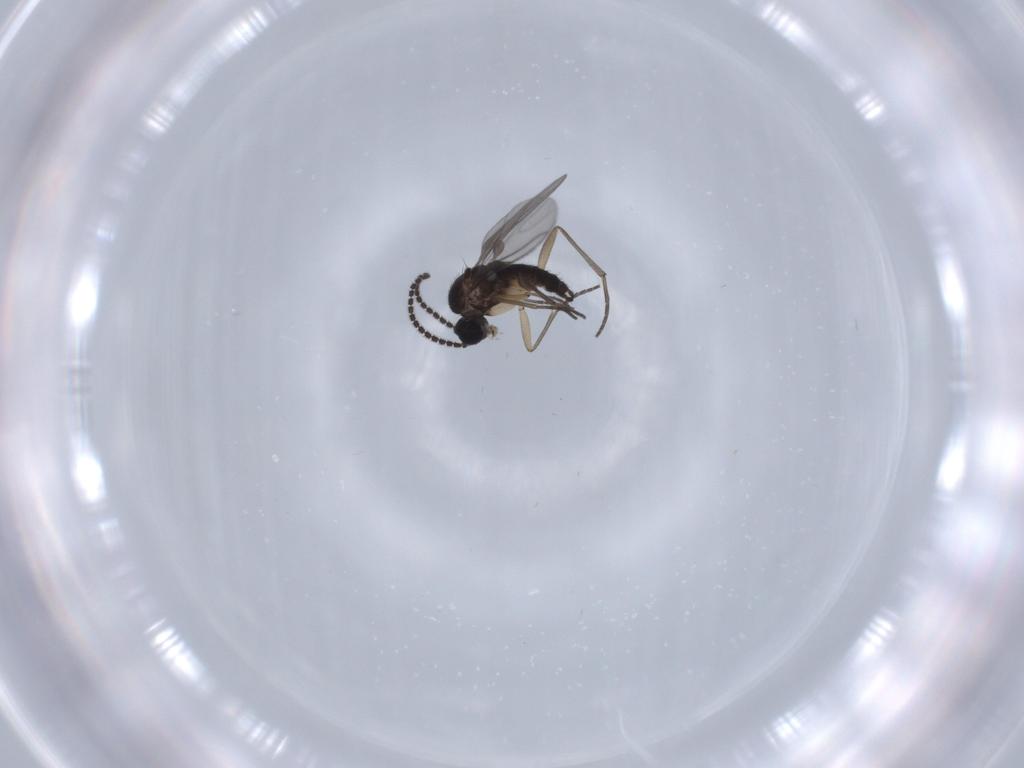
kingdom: Animalia
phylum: Arthropoda
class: Insecta
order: Diptera
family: Sciaridae
